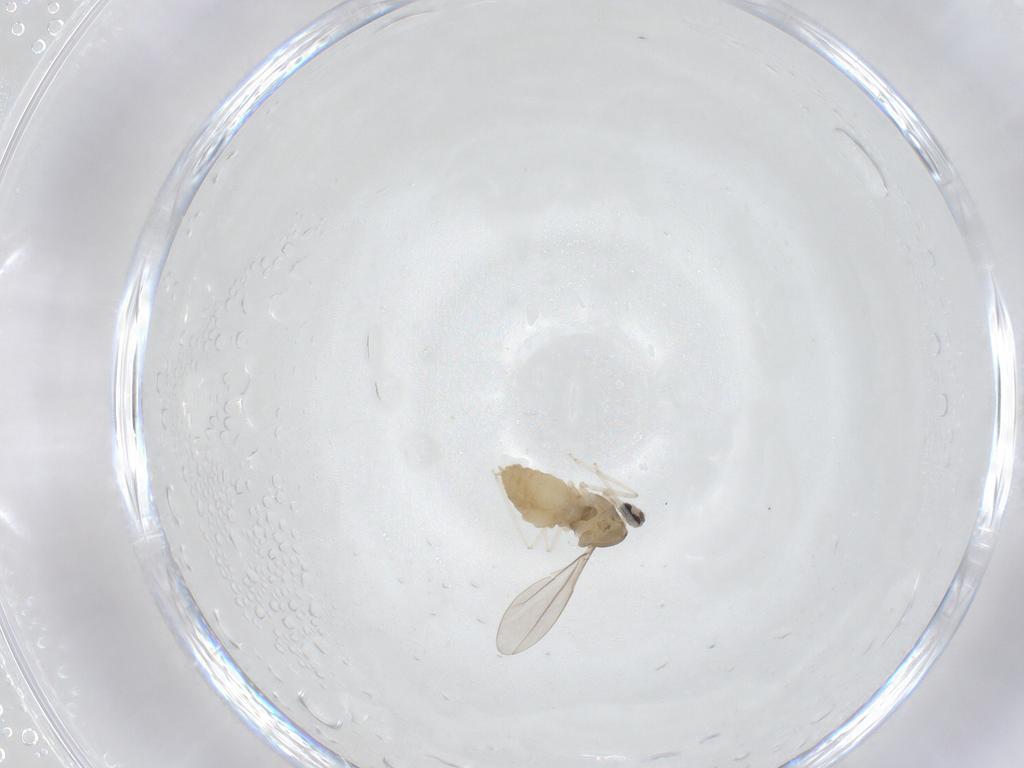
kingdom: Animalia
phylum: Arthropoda
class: Insecta
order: Diptera
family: Cecidomyiidae
